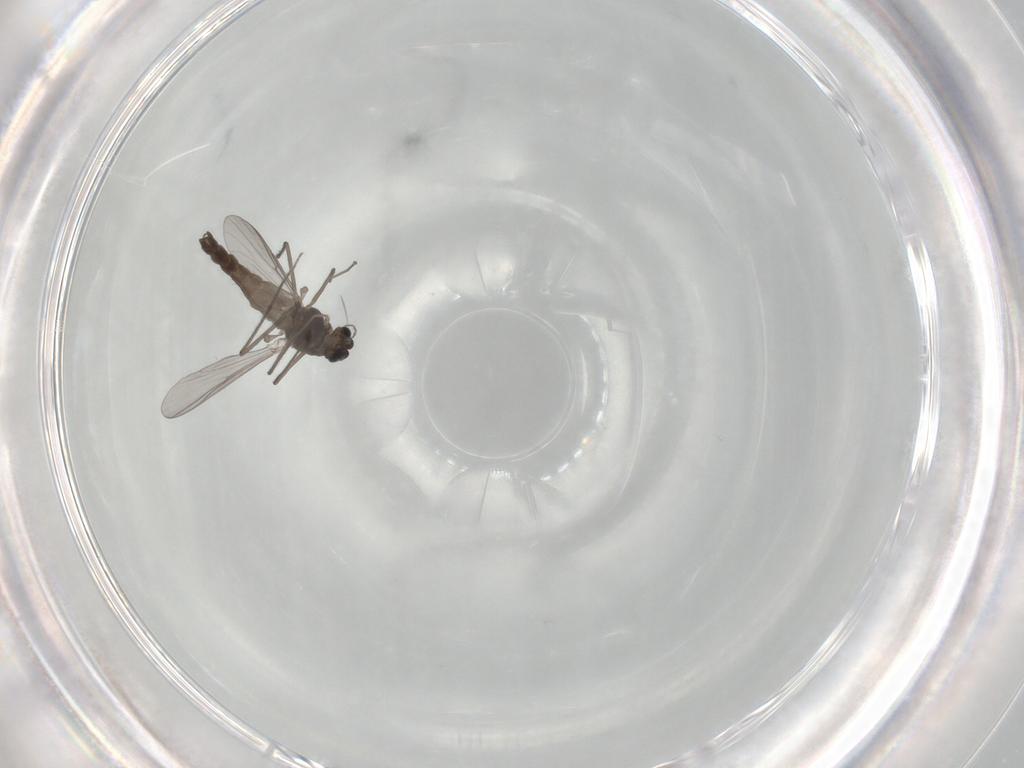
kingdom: Animalia
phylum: Arthropoda
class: Insecta
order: Diptera
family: Chironomidae
